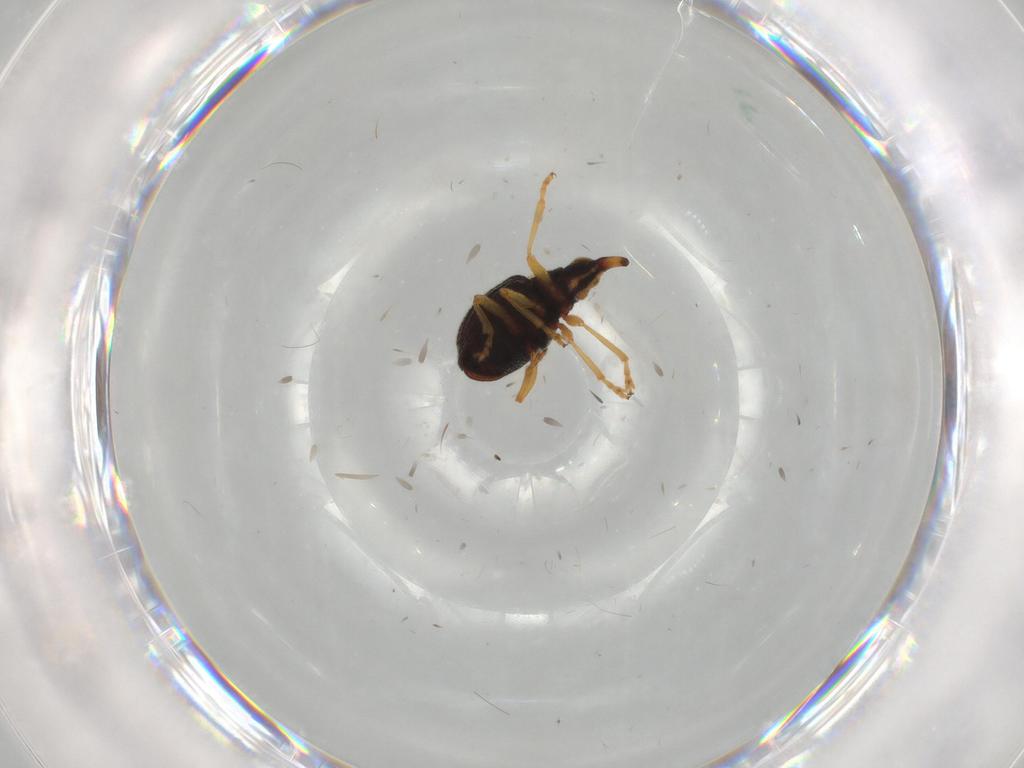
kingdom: Animalia
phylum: Arthropoda
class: Insecta
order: Coleoptera
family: Brentidae
